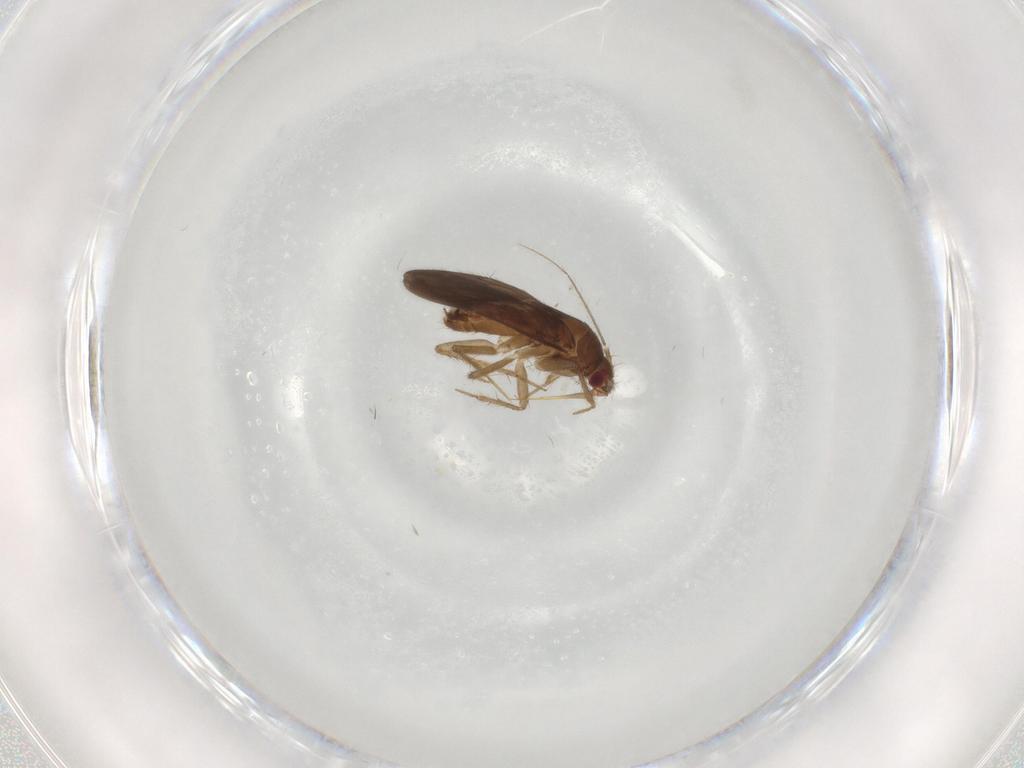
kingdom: Animalia
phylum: Arthropoda
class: Insecta
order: Hemiptera
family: Ceratocombidae
